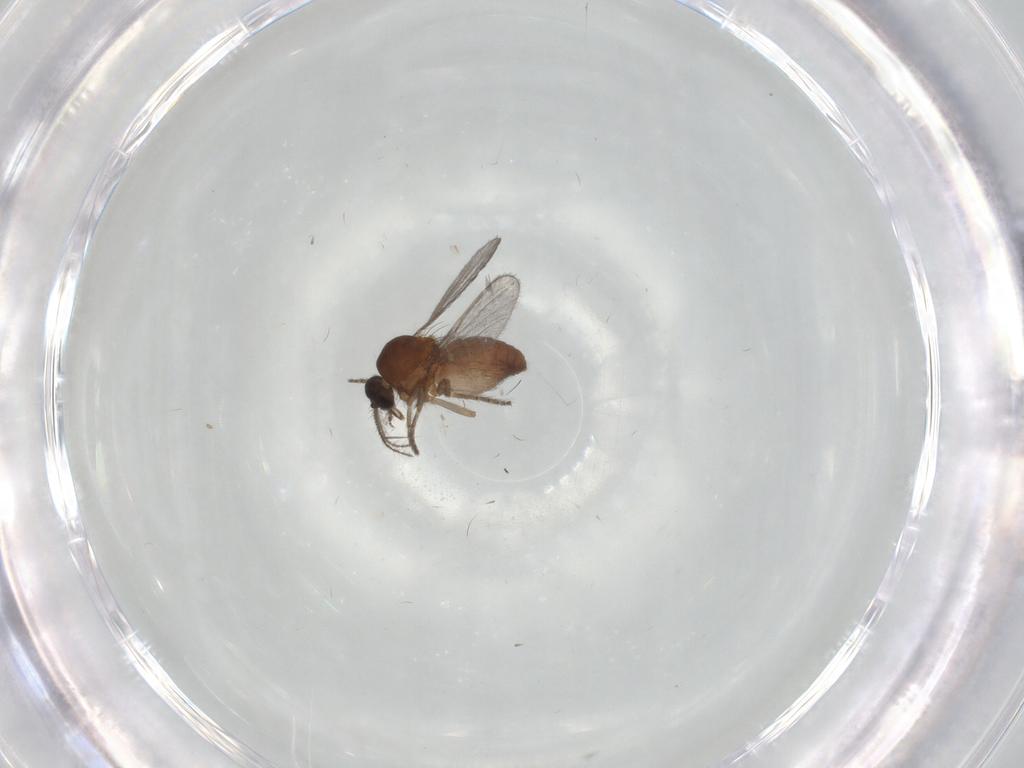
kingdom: Animalia
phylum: Arthropoda
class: Insecta
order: Diptera
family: Ceratopogonidae
